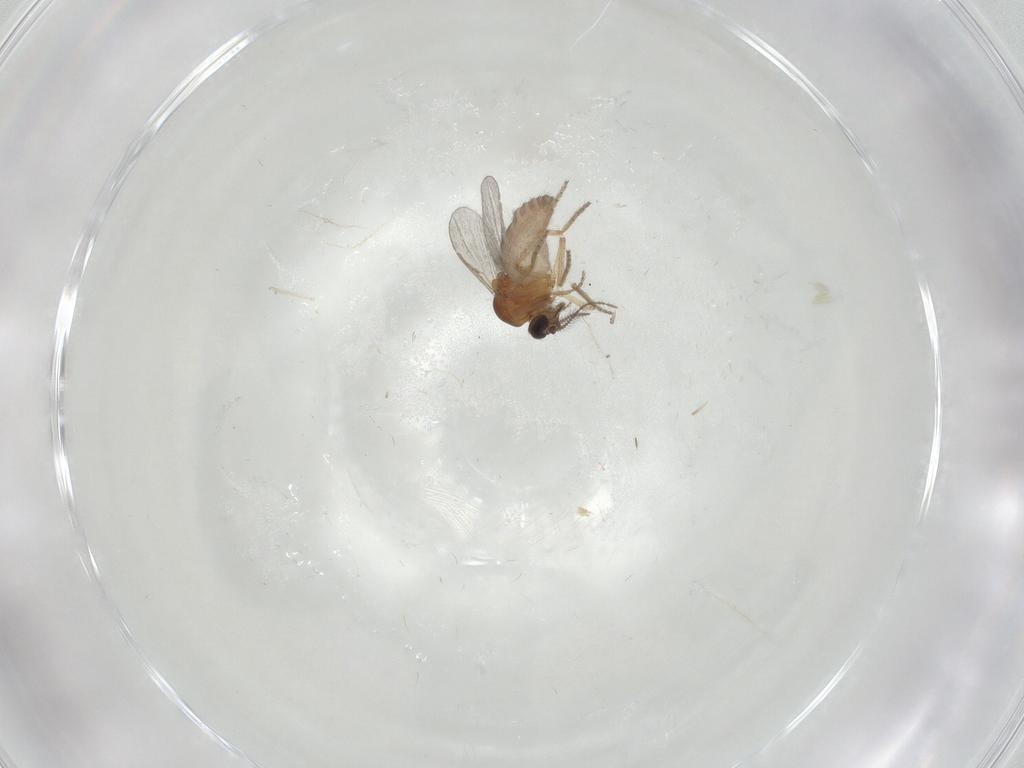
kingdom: Animalia
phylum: Arthropoda
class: Insecta
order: Diptera
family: Ceratopogonidae
